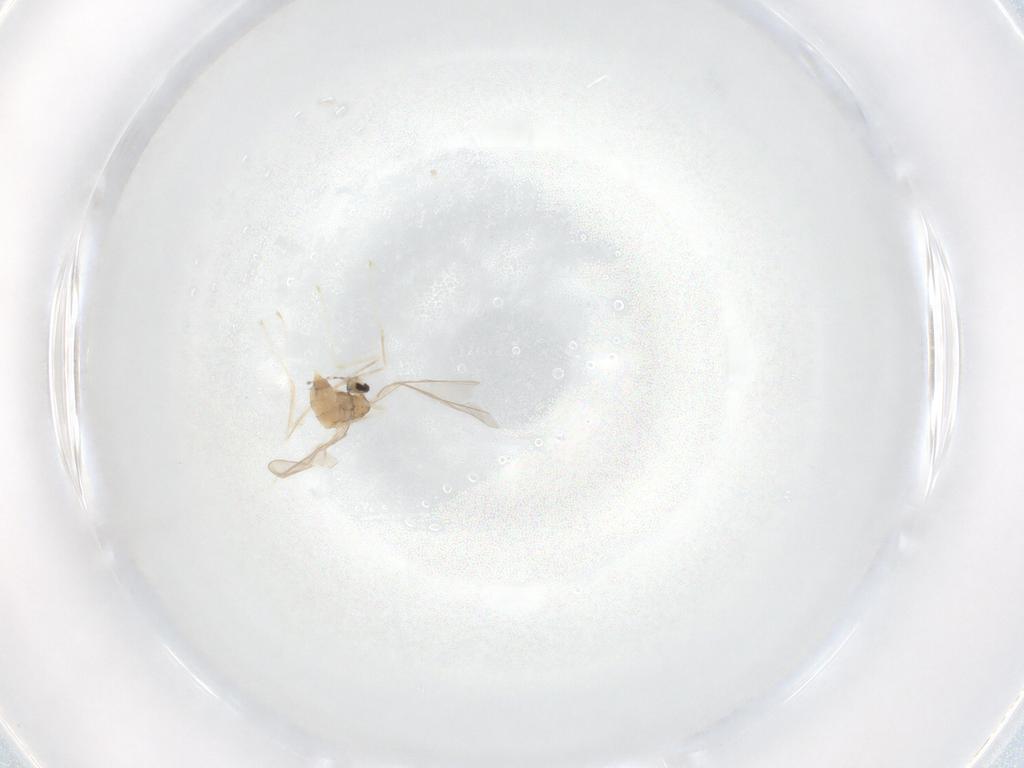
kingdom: Animalia
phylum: Arthropoda
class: Insecta
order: Diptera
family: Cecidomyiidae
